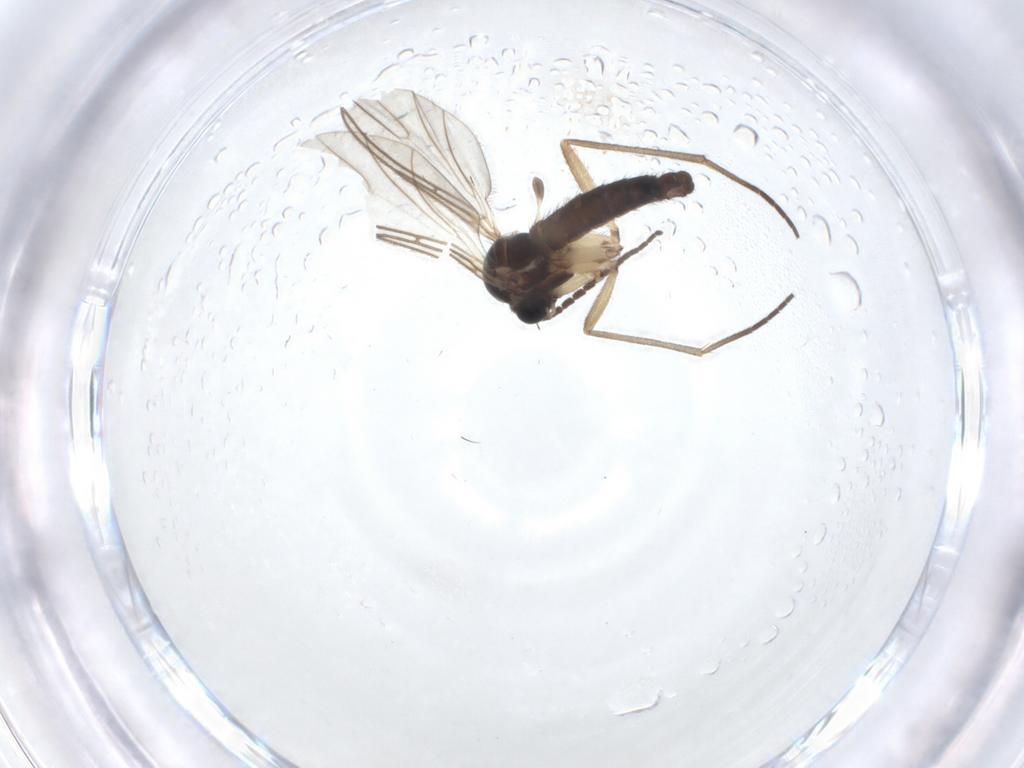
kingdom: Animalia
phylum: Arthropoda
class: Insecta
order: Diptera
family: Sciaridae
